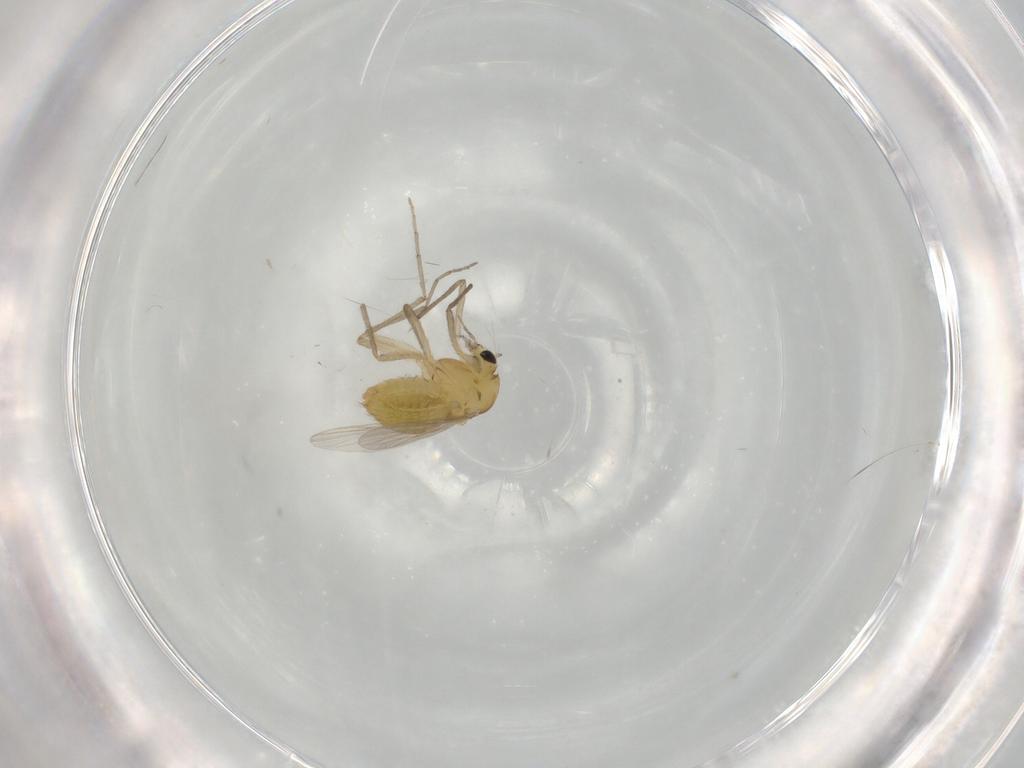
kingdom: Animalia
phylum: Arthropoda
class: Insecta
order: Diptera
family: Chironomidae
